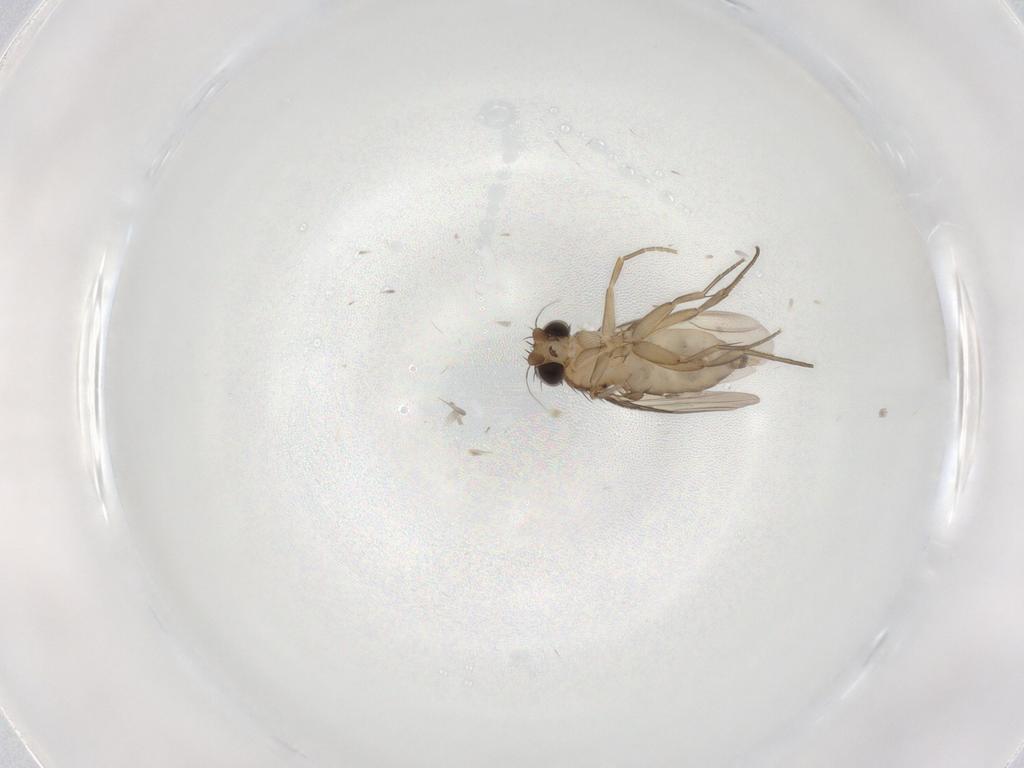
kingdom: Animalia
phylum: Arthropoda
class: Insecta
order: Diptera
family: Phoridae
